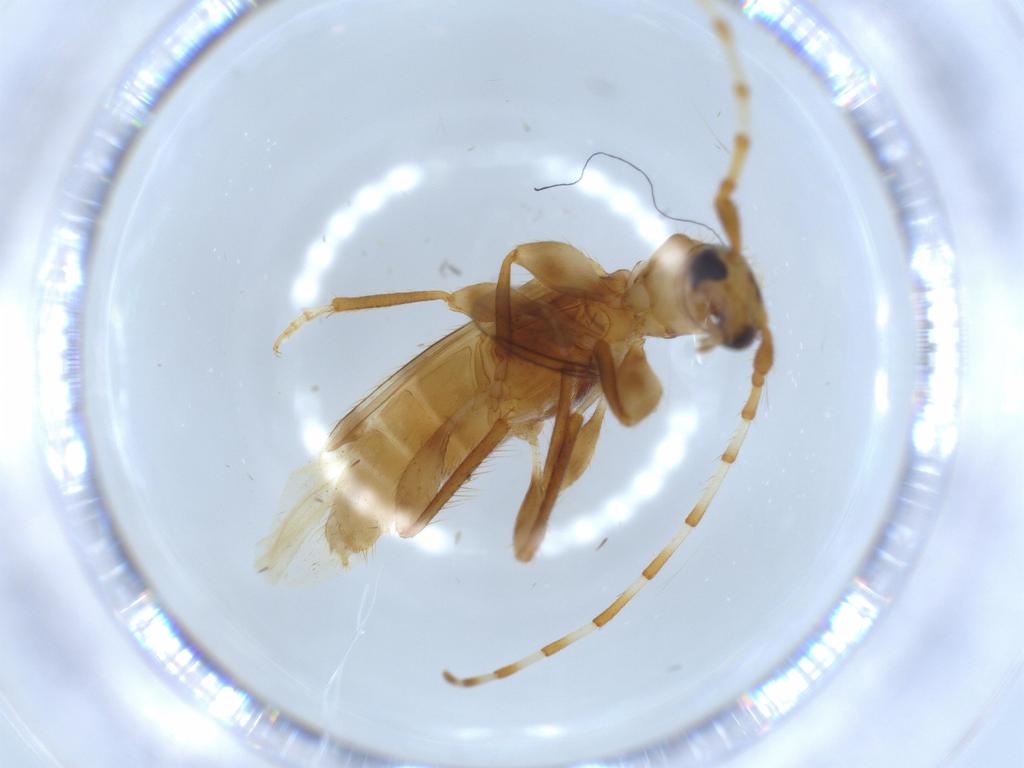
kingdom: Animalia
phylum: Arthropoda
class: Insecta
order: Coleoptera
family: Cerambycidae
